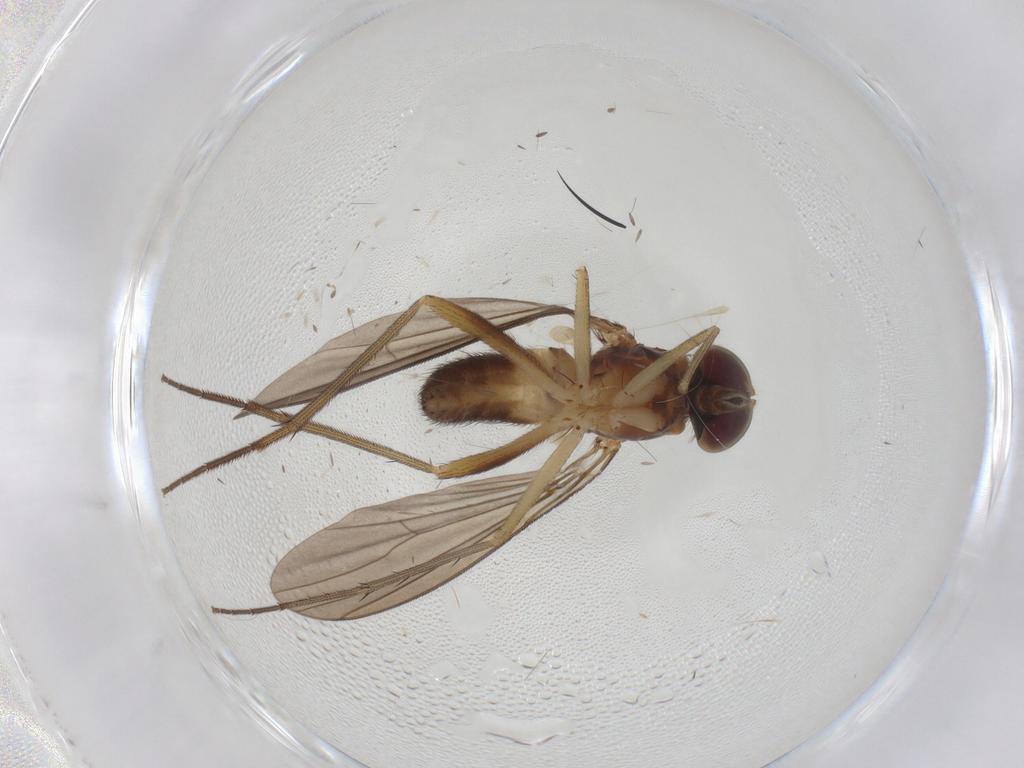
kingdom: Animalia
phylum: Arthropoda
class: Insecta
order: Diptera
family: Dolichopodidae
